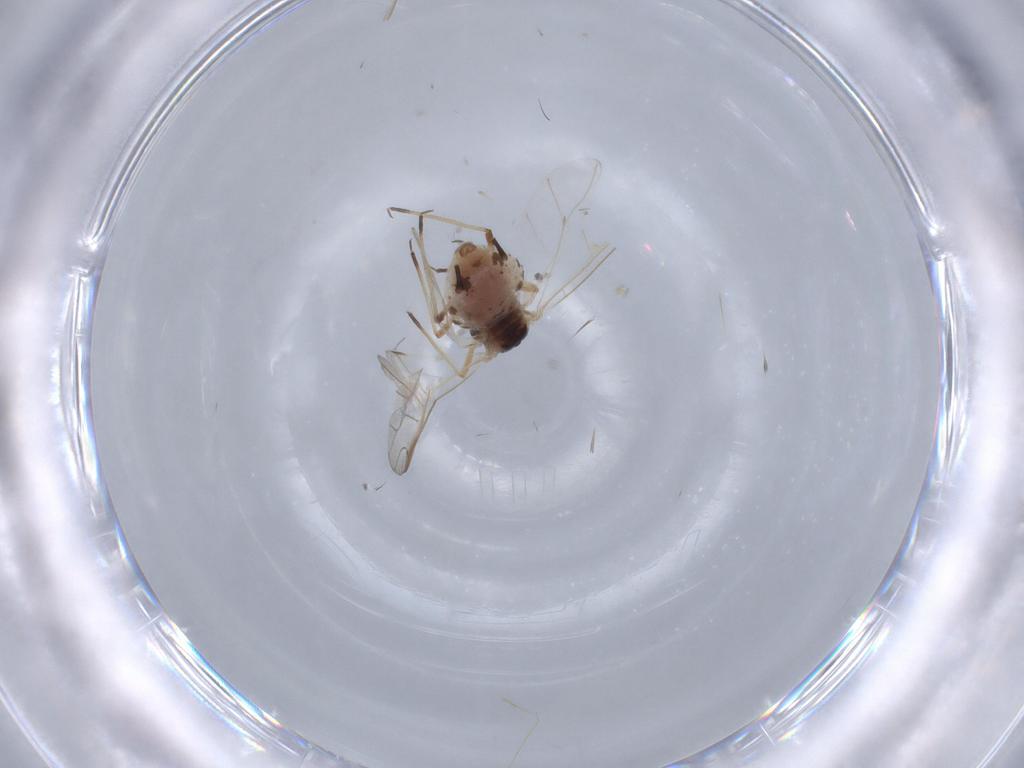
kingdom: Animalia
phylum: Arthropoda
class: Insecta
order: Hemiptera
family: Aphididae
